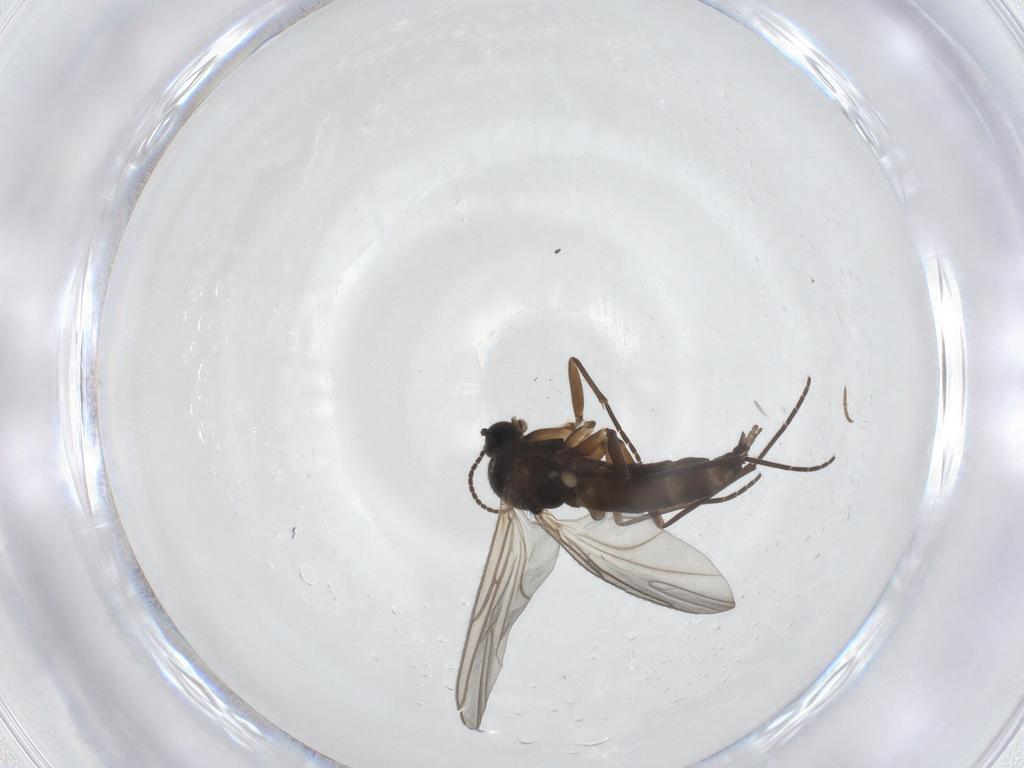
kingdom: Animalia
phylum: Arthropoda
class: Insecta
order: Diptera
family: Sciaridae
